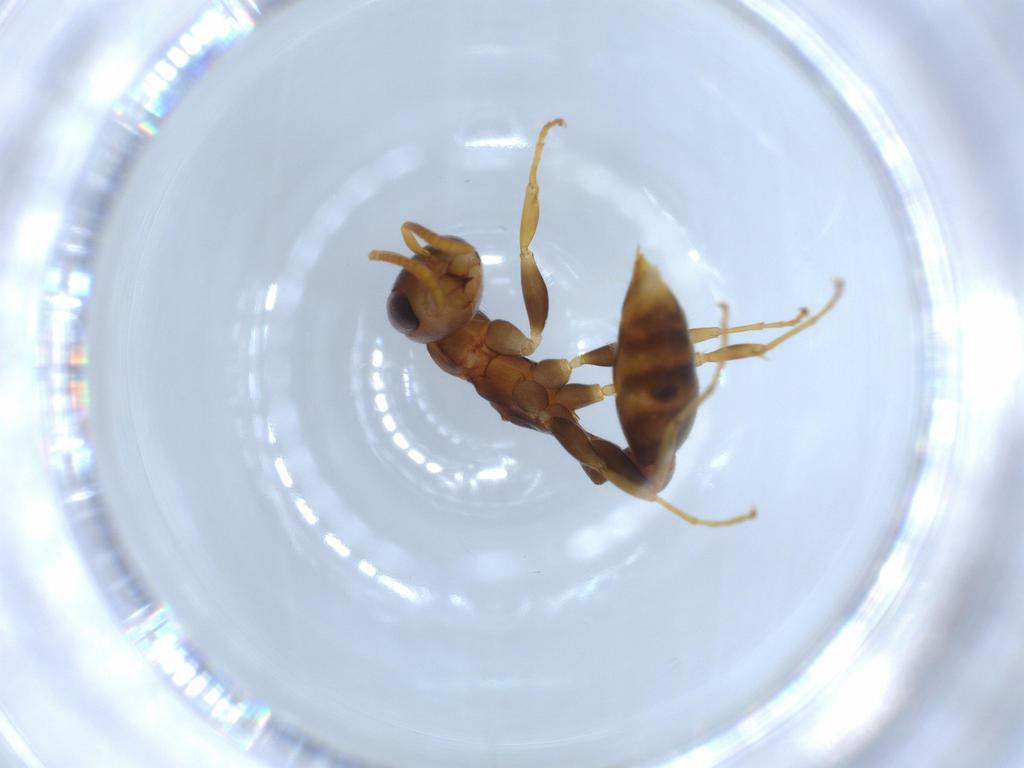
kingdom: Animalia
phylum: Arthropoda
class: Insecta
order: Hymenoptera
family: Formicidae
